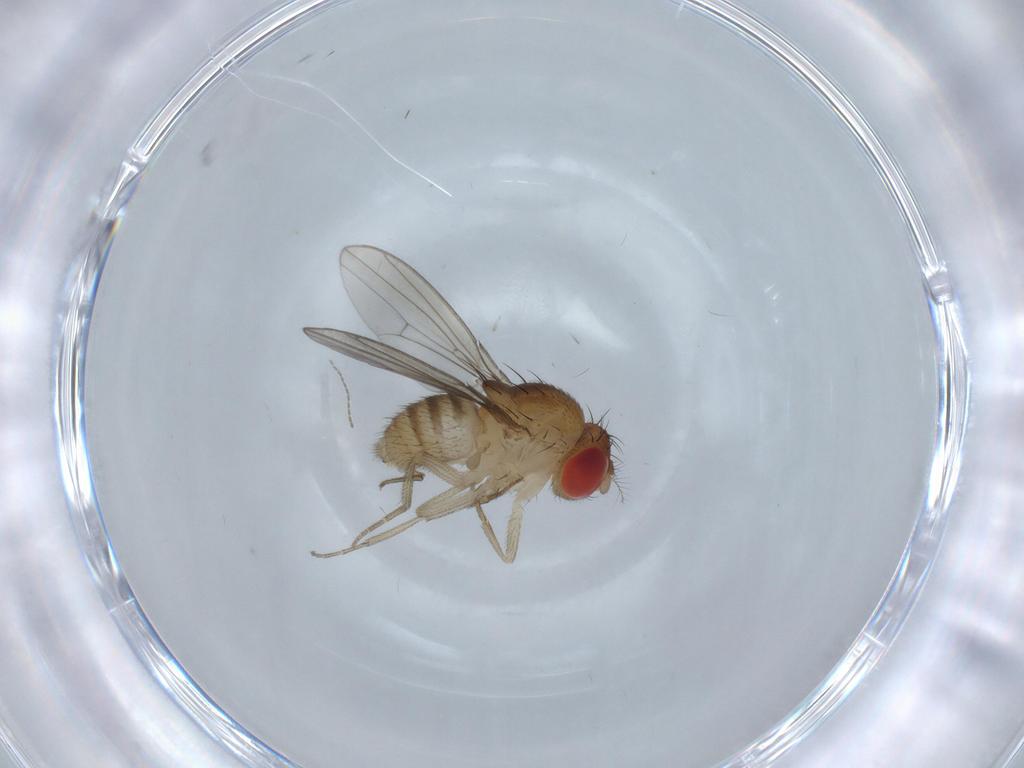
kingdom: Animalia
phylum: Arthropoda
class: Insecta
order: Diptera
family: Drosophilidae
